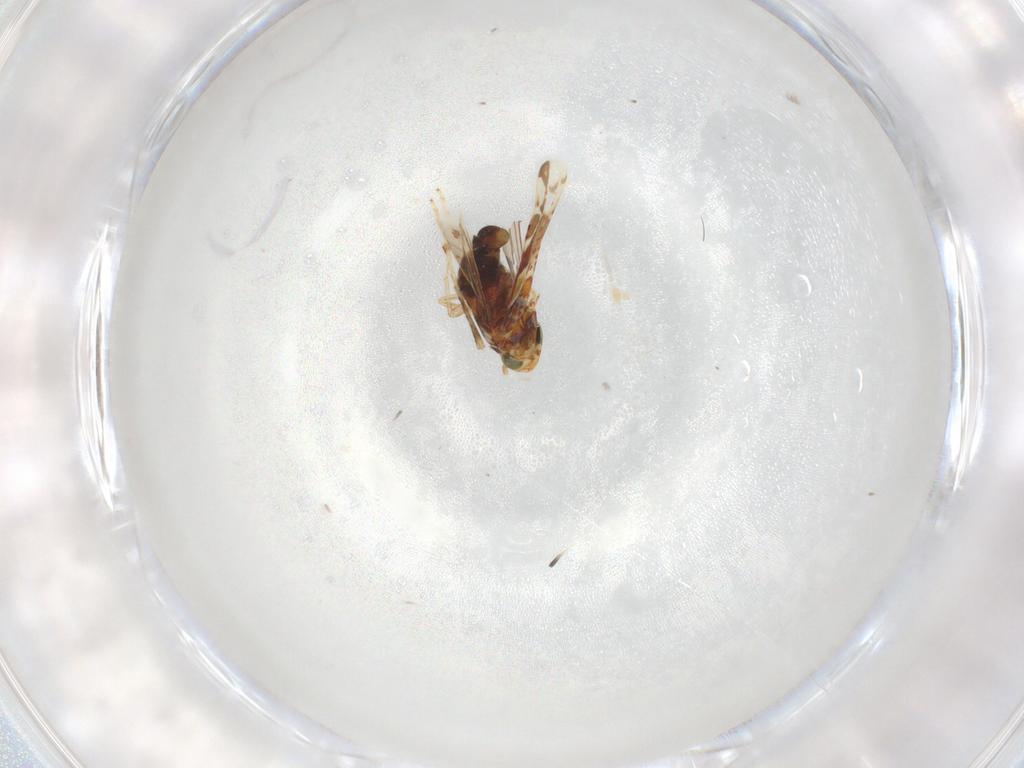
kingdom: Animalia
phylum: Arthropoda
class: Insecta
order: Hemiptera
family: Cicadellidae
